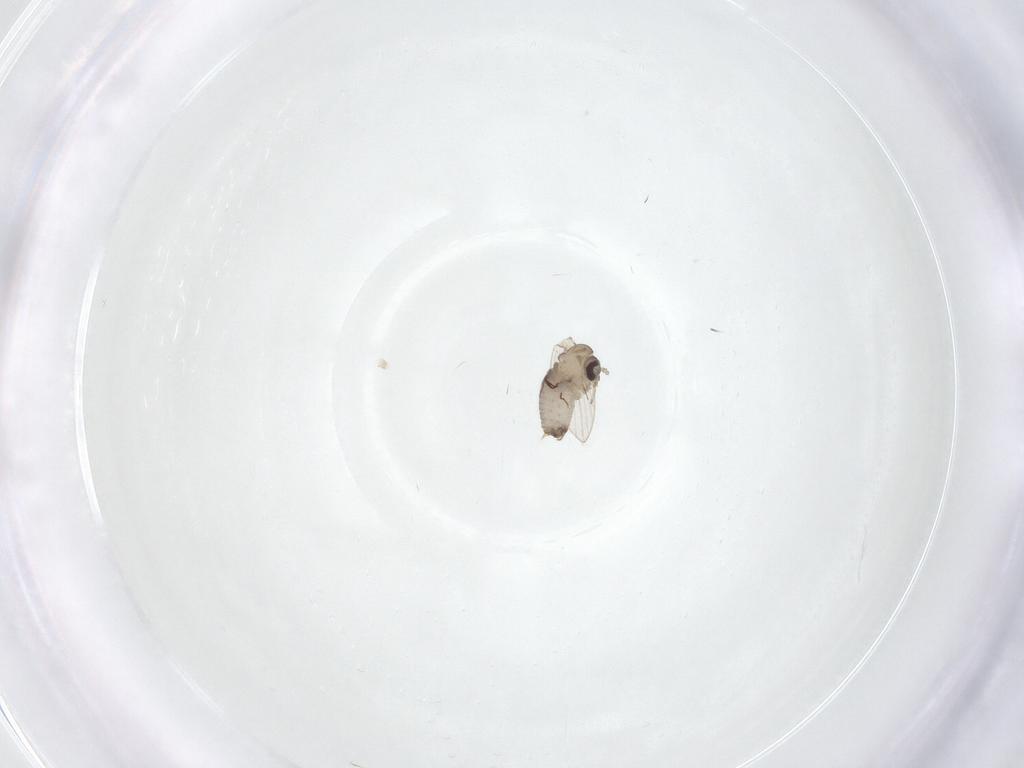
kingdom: Animalia
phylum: Arthropoda
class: Insecta
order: Diptera
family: Psychodidae
